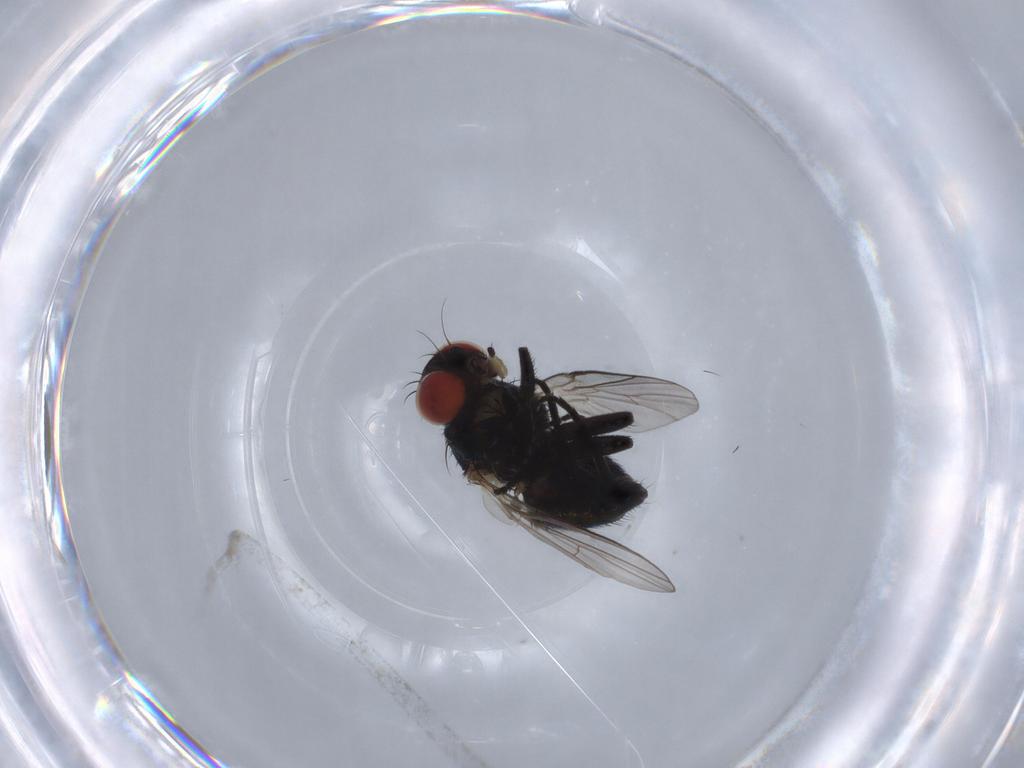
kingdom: Animalia
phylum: Arthropoda
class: Insecta
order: Diptera
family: Agromyzidae
